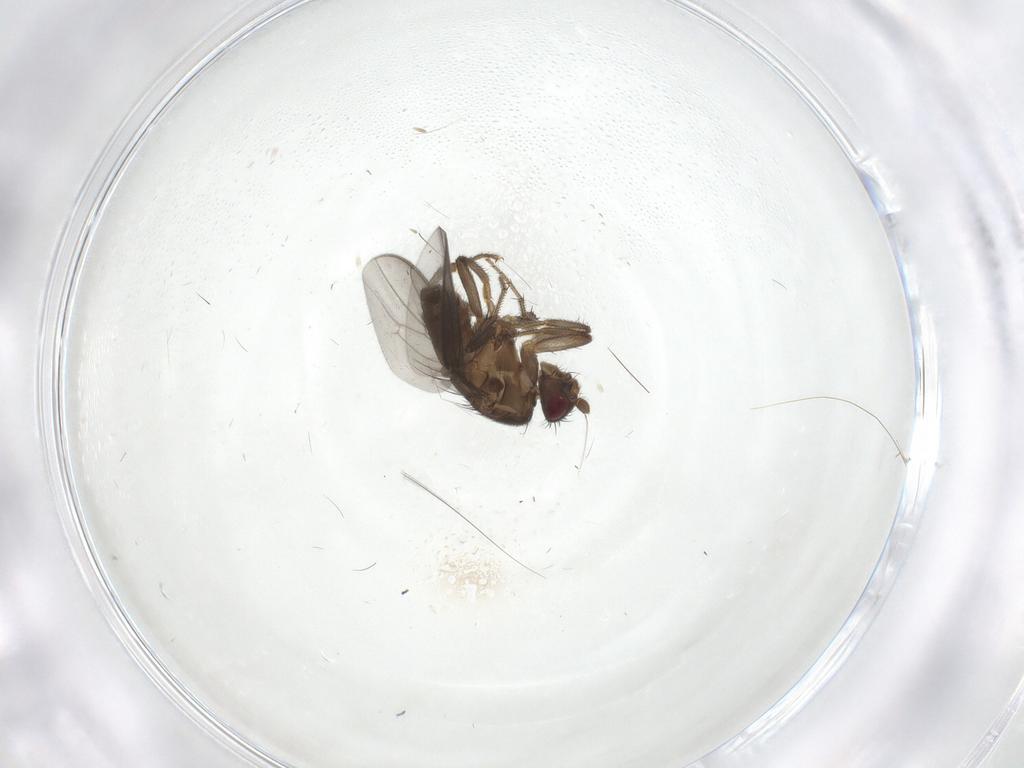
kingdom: Animalia
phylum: Arthropoda
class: Insecta
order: Diptera
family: Sphaeroceridae
